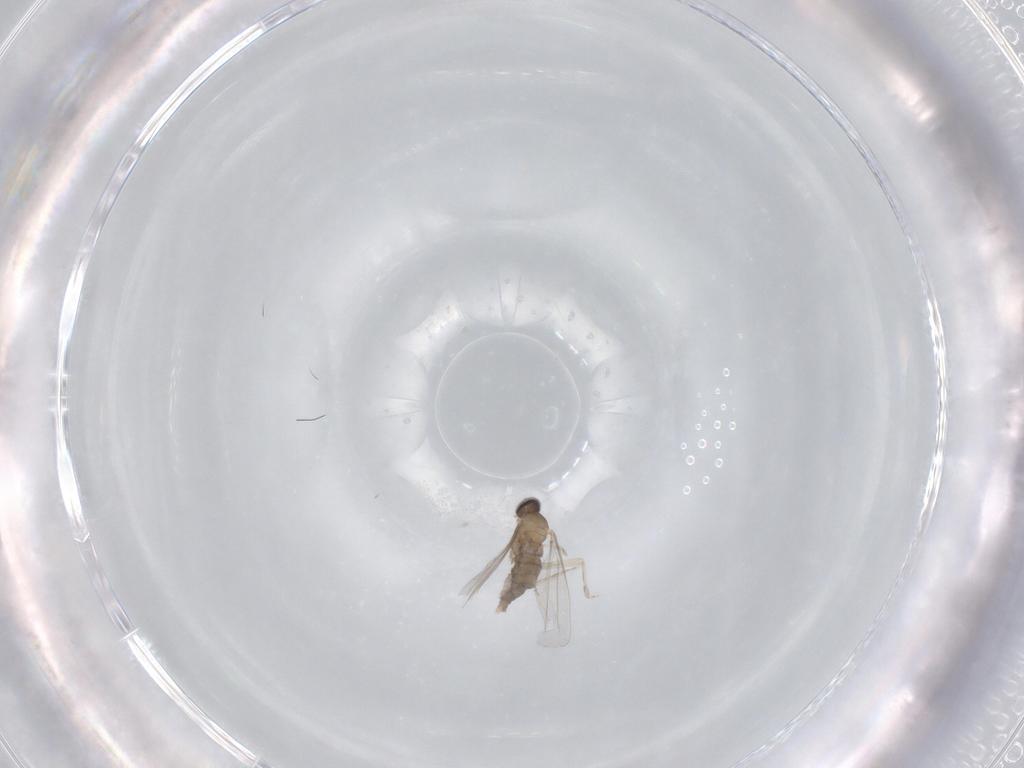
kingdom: Animalia
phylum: Arthropoda
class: Insecta
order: Diptera
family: Cecidomyiidae
